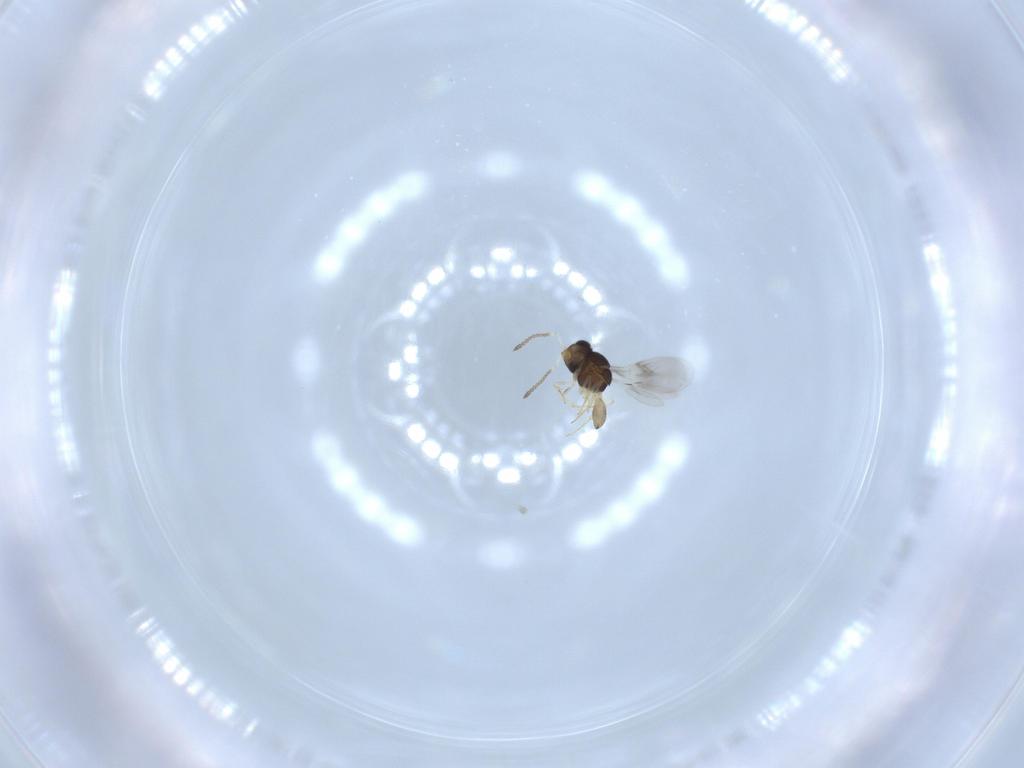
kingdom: Animalia
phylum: Arthropoda
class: Insecta
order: Hymenoptera
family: Scelionidae
